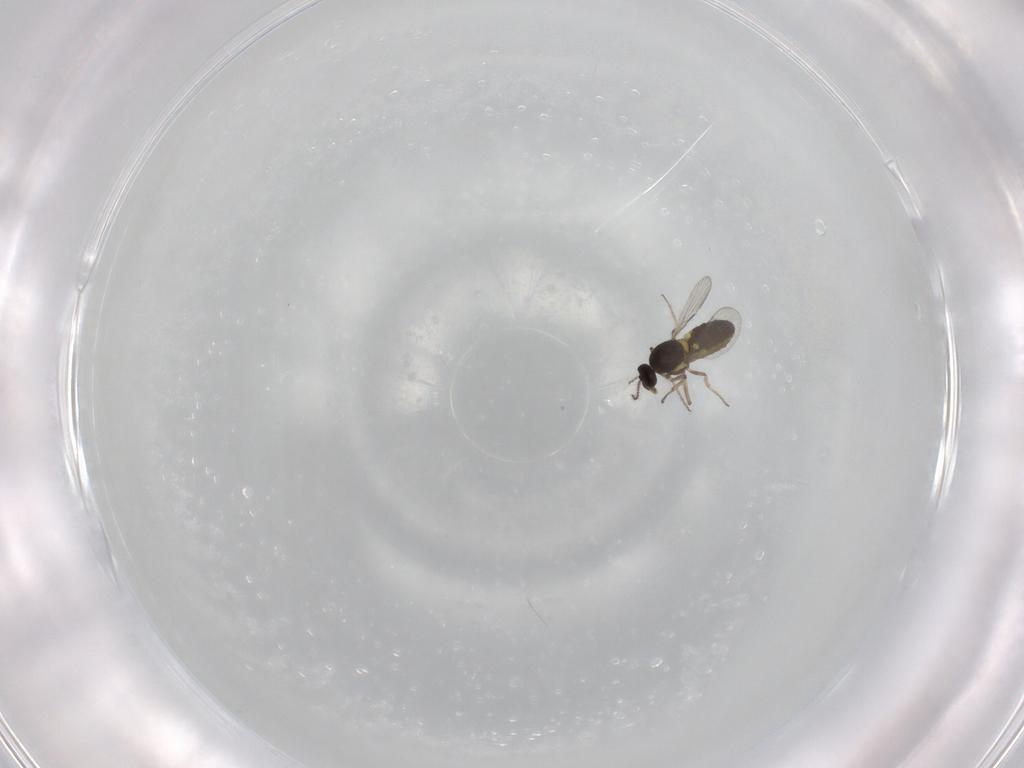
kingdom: Animalia
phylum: Arthropoda
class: Insecta
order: Diptera
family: Ceratopogonidae
